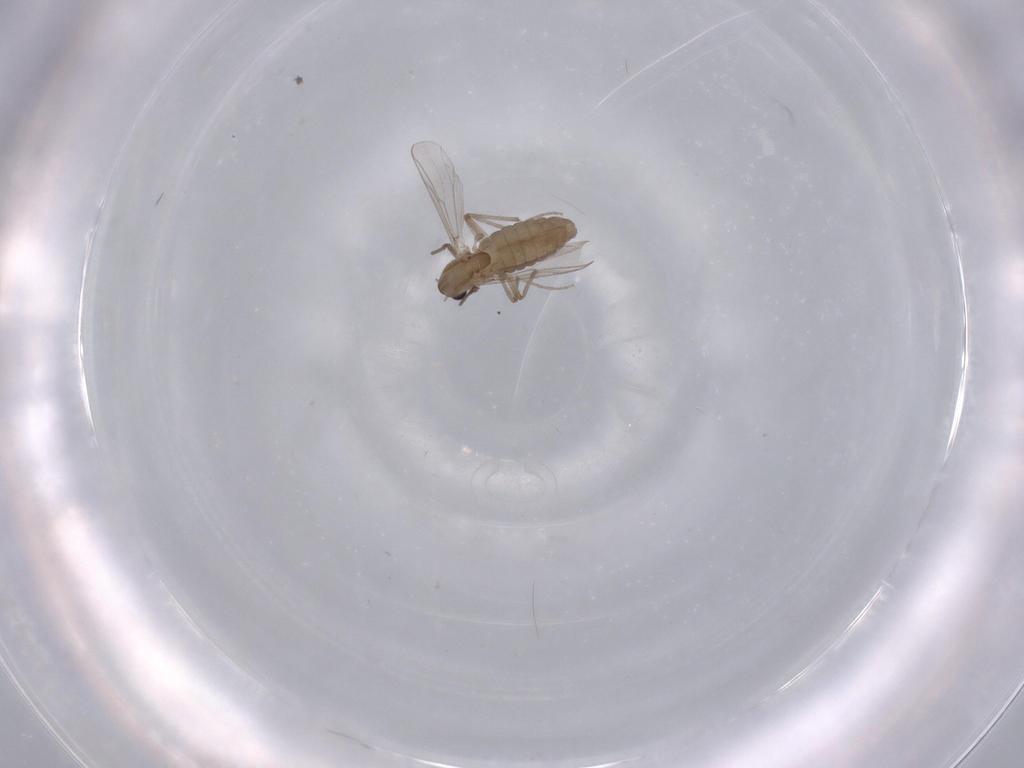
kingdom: Animalia
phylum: Arthropoda
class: Insecta
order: Diptera
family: Chironomidae
